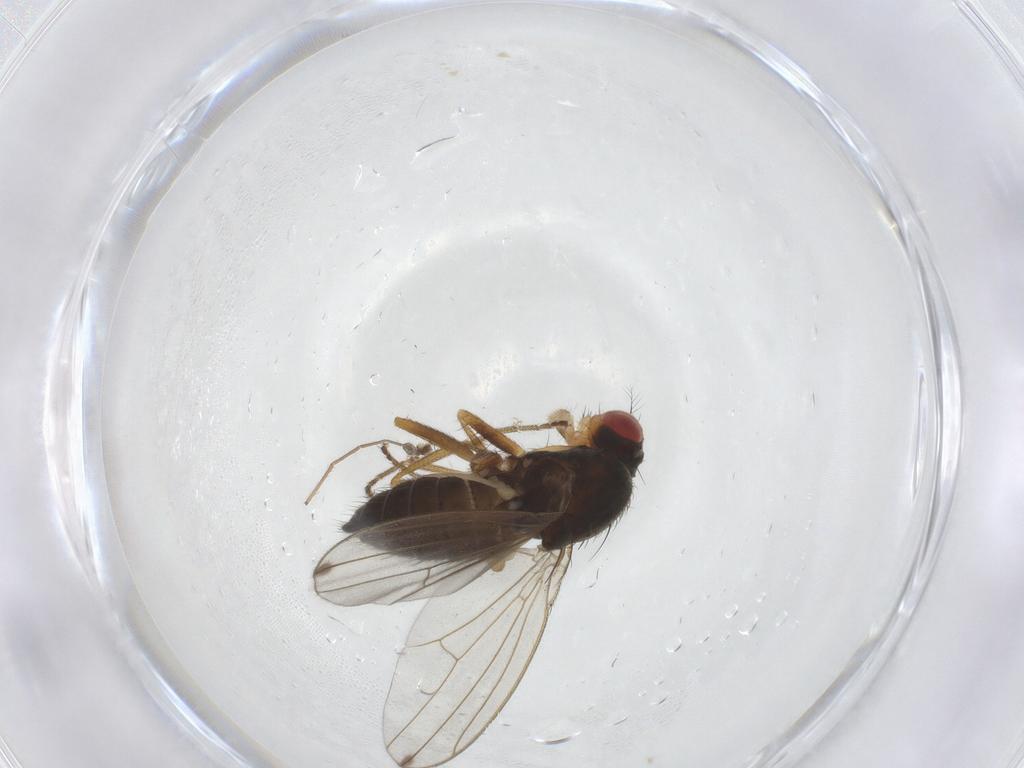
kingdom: Animalia
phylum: Arthropoda
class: Insecta
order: Diptera
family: Drosophilidae
